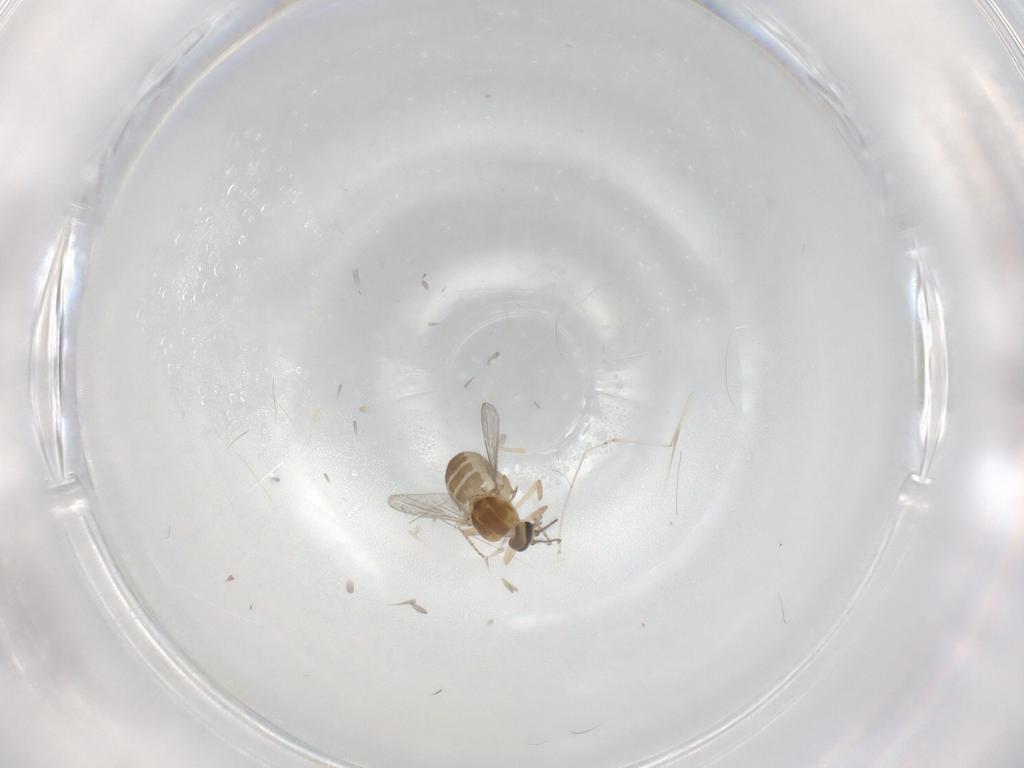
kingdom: Animalia
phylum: Arthropoda
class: Insecta
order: Diptera
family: Ceratopogonidae
